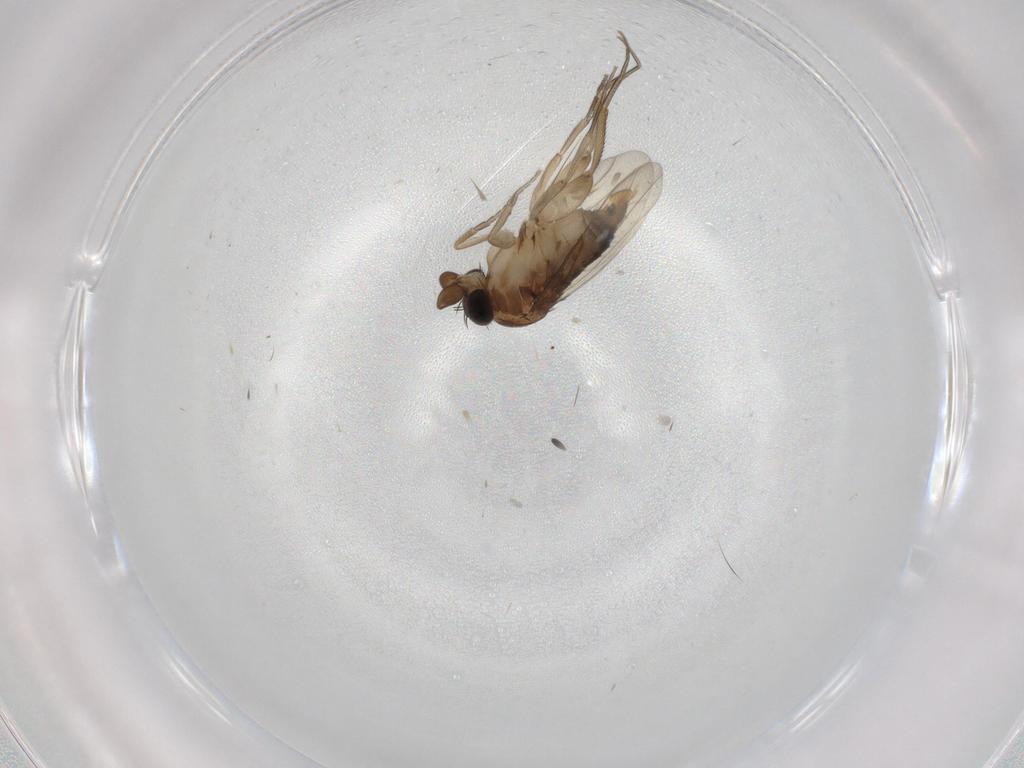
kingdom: Animalia
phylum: Arthropoda
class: Insecta
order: Diptera
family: Phoridae
